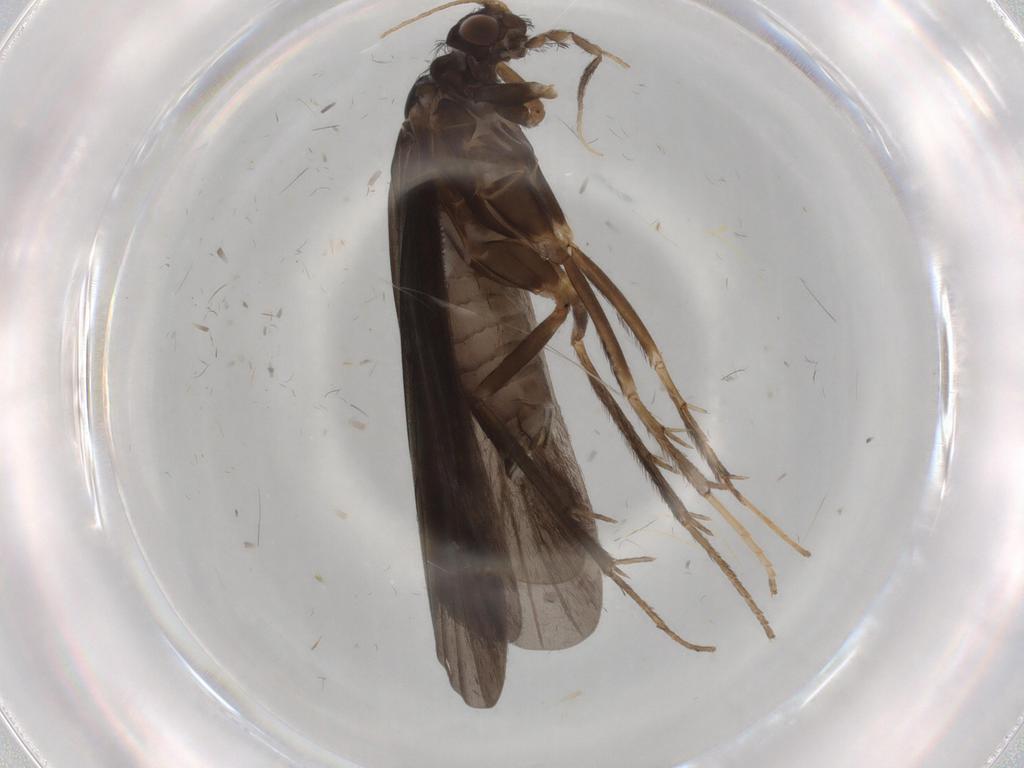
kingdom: Animalia
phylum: Arthropoda
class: Insecta
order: Trichoptera
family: Hydropsychidae
